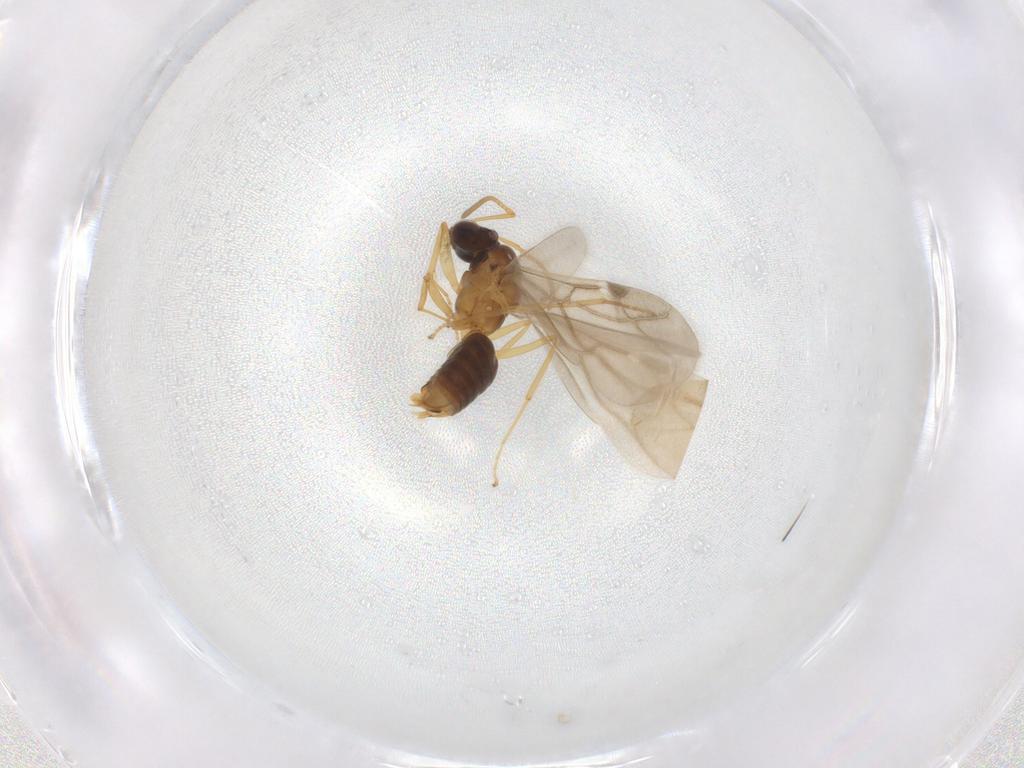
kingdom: Animalia
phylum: Arthropoda
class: Insecta
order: Hymenoptera
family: Formicidae
